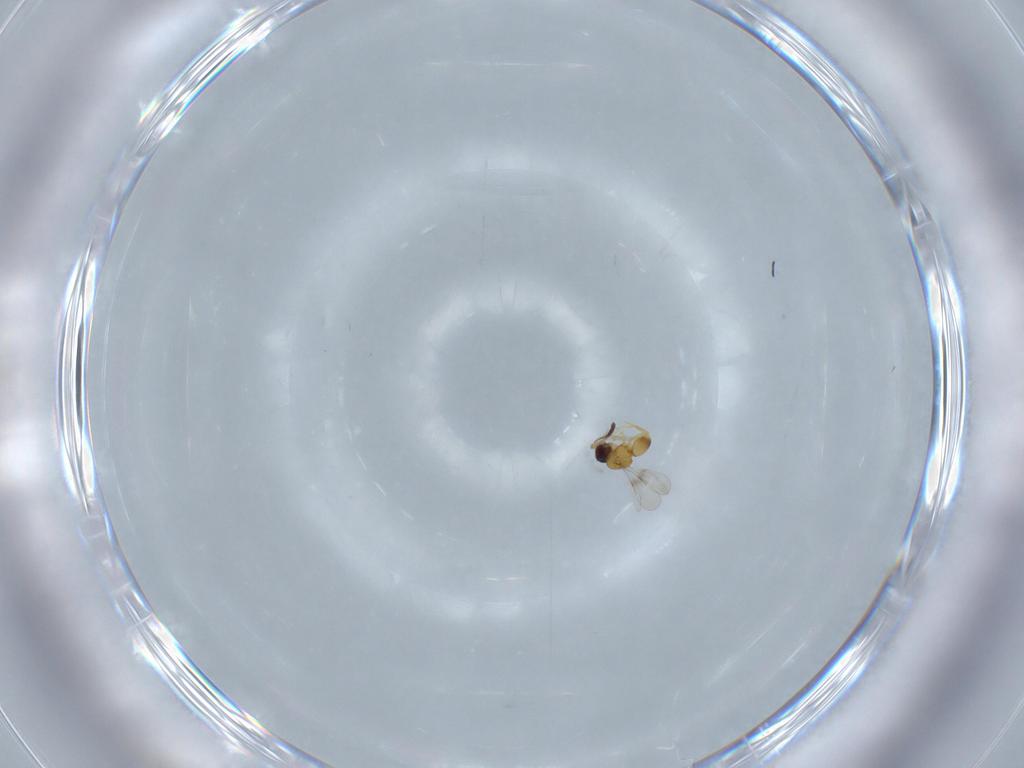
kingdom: Animalia
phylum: Arthropoda
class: Insecta
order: Hymenoptera
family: Ceraphronidae
